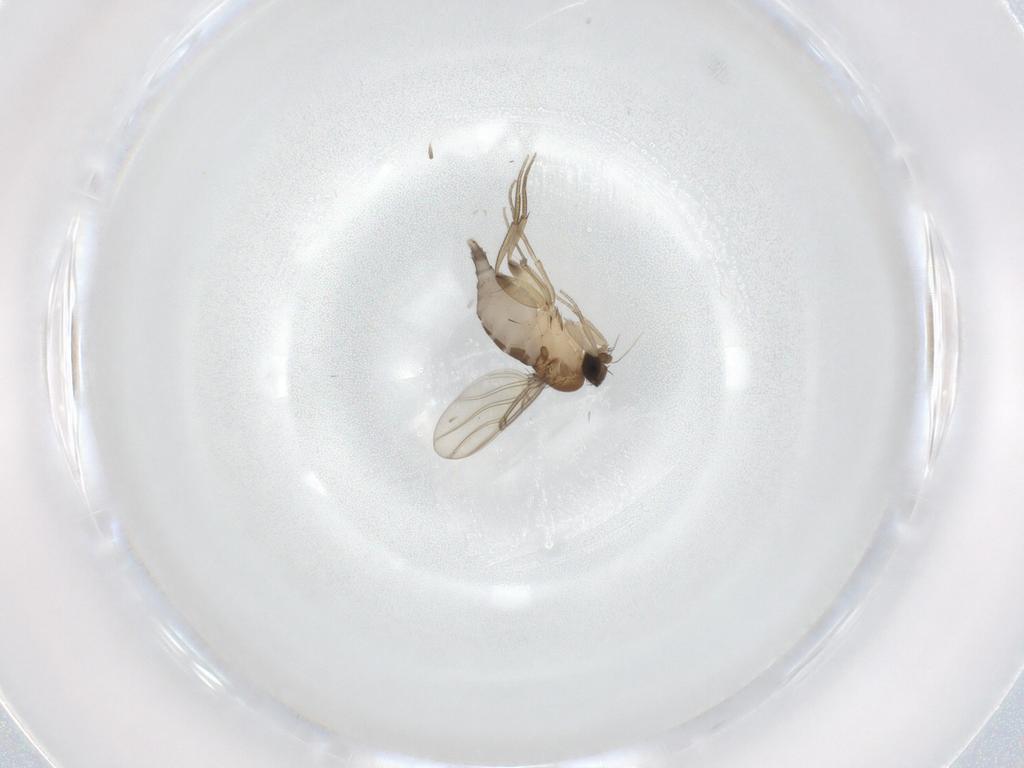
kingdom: Animalia
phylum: Arthropoda
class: Insecta
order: Diptera
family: Phoridae
